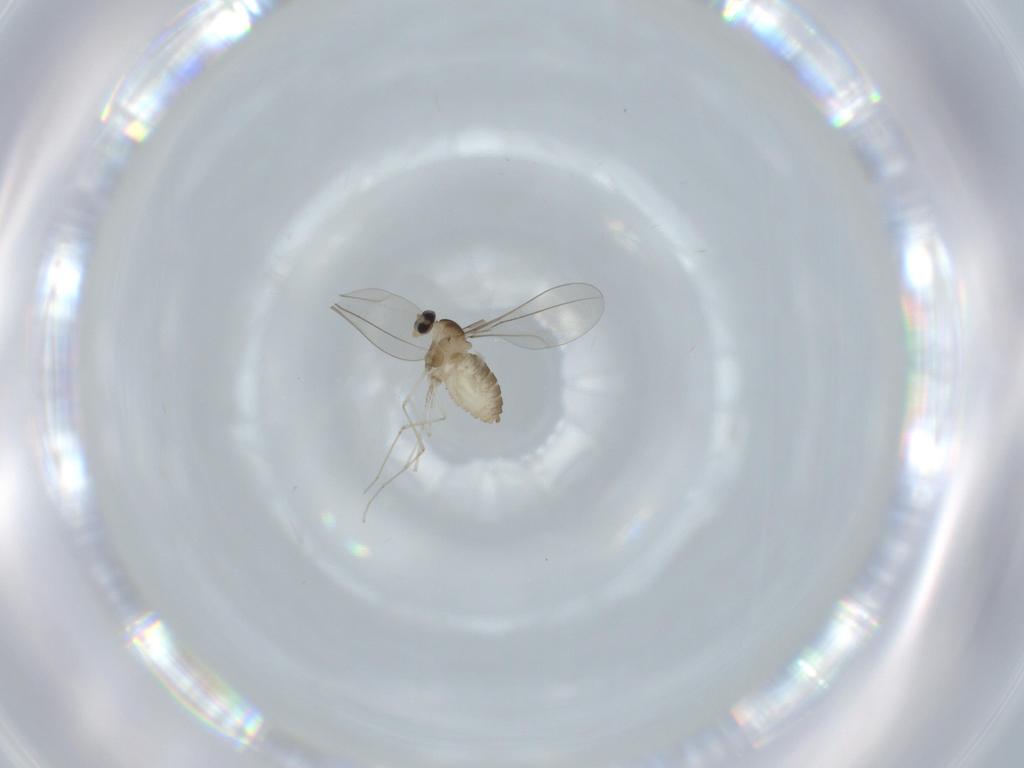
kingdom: Animalia
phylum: Arthropoda
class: Insecta
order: Diptera
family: Cecidomyiidae
